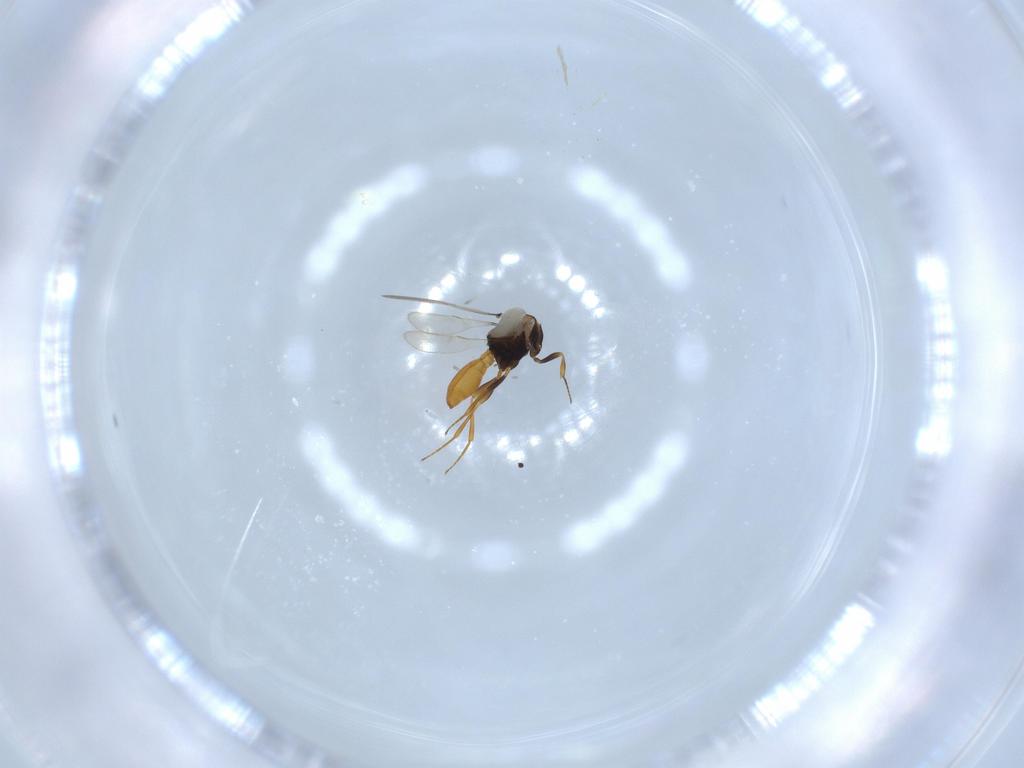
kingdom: Animalia
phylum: Arthropoda
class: Insecta
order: Hymenoptera
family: Scelionidae
